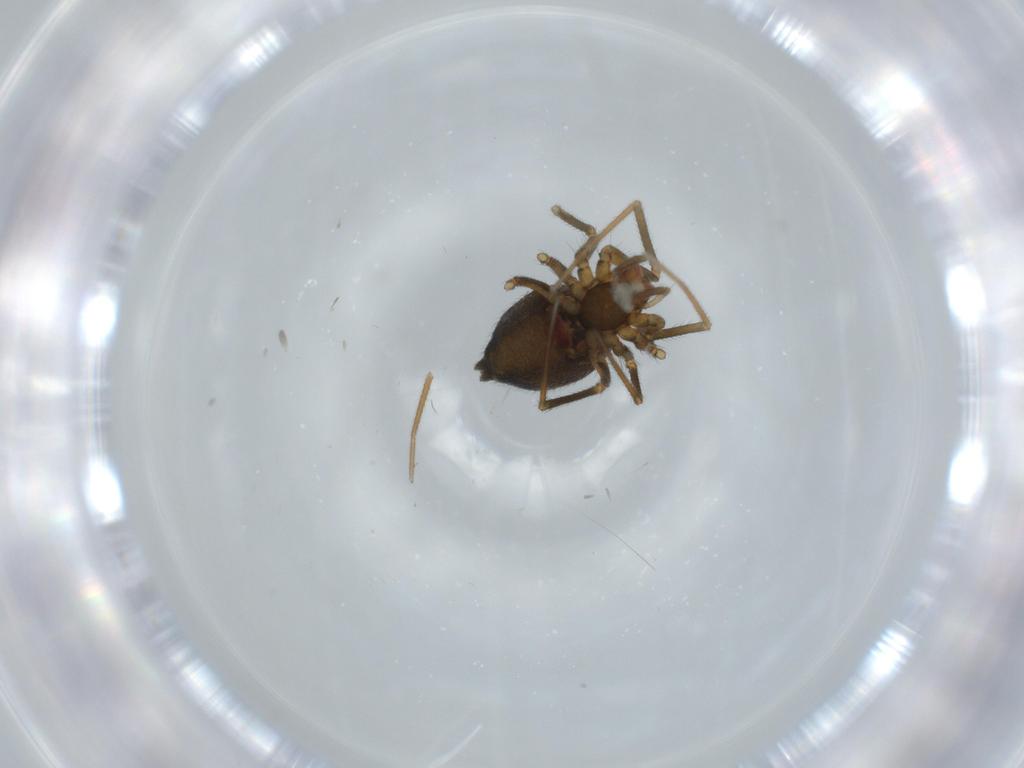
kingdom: Animalia
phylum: Arthropoda
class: Arachnida
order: Araneae
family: Linyphiidae
